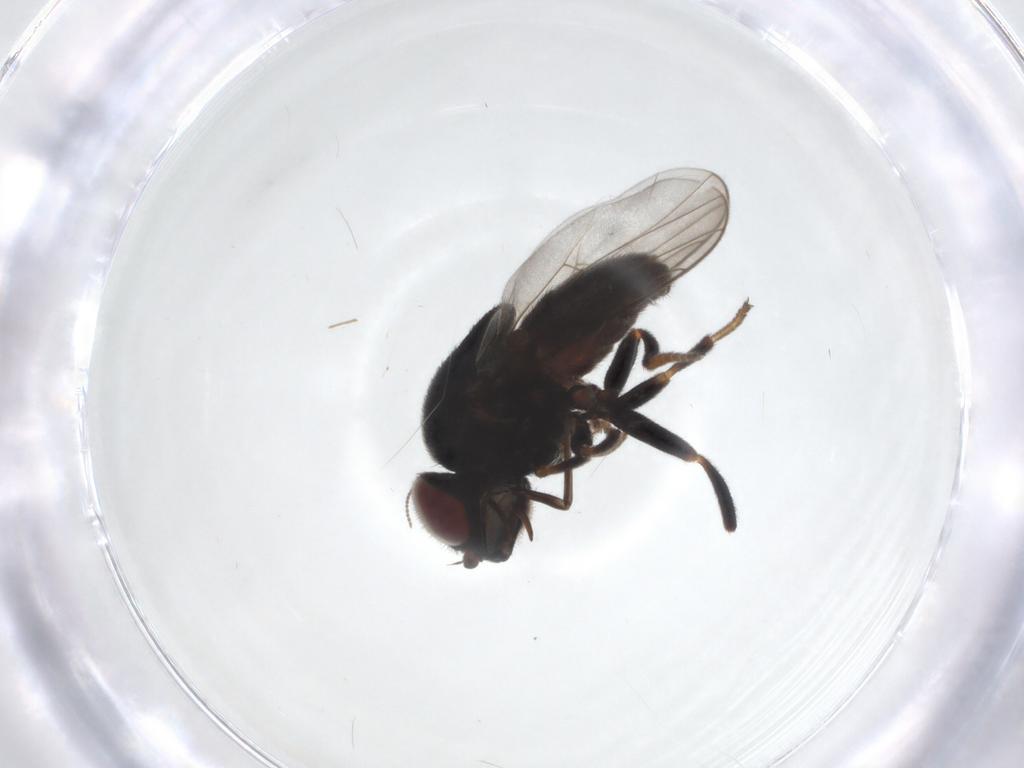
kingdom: Animalia
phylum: Arthropoda
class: Insecta
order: Diptera
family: Chloropidae
